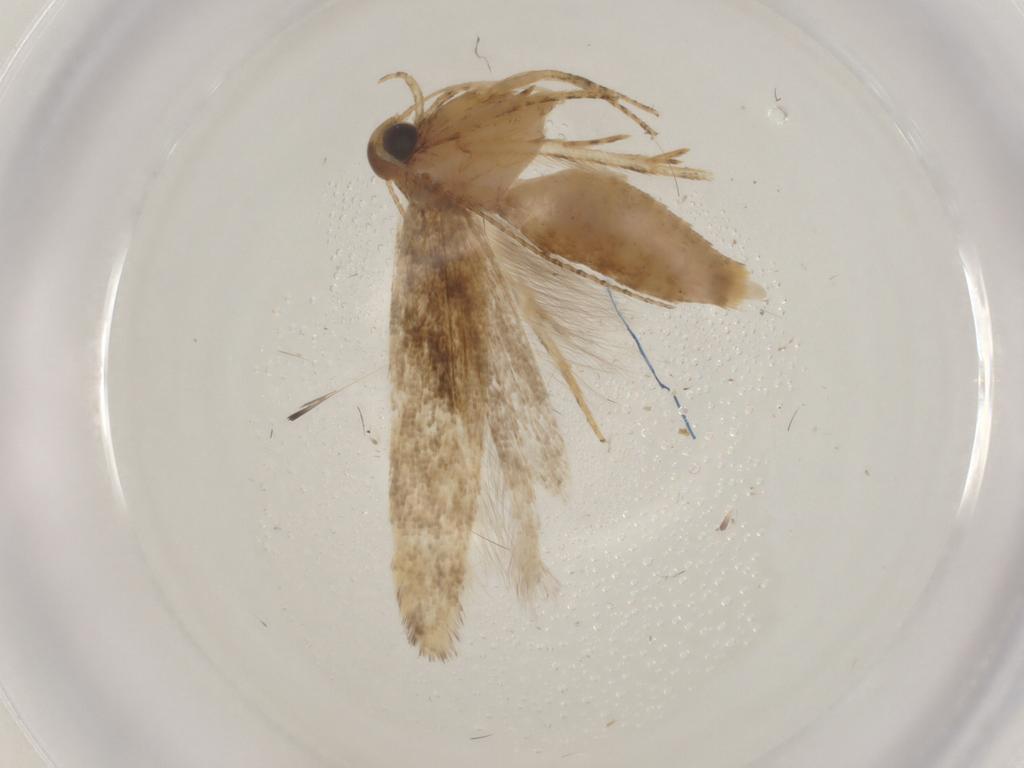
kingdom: Animalia
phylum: Arthropoda
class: Insecta
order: Lepidoptera
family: Gelechiidae
